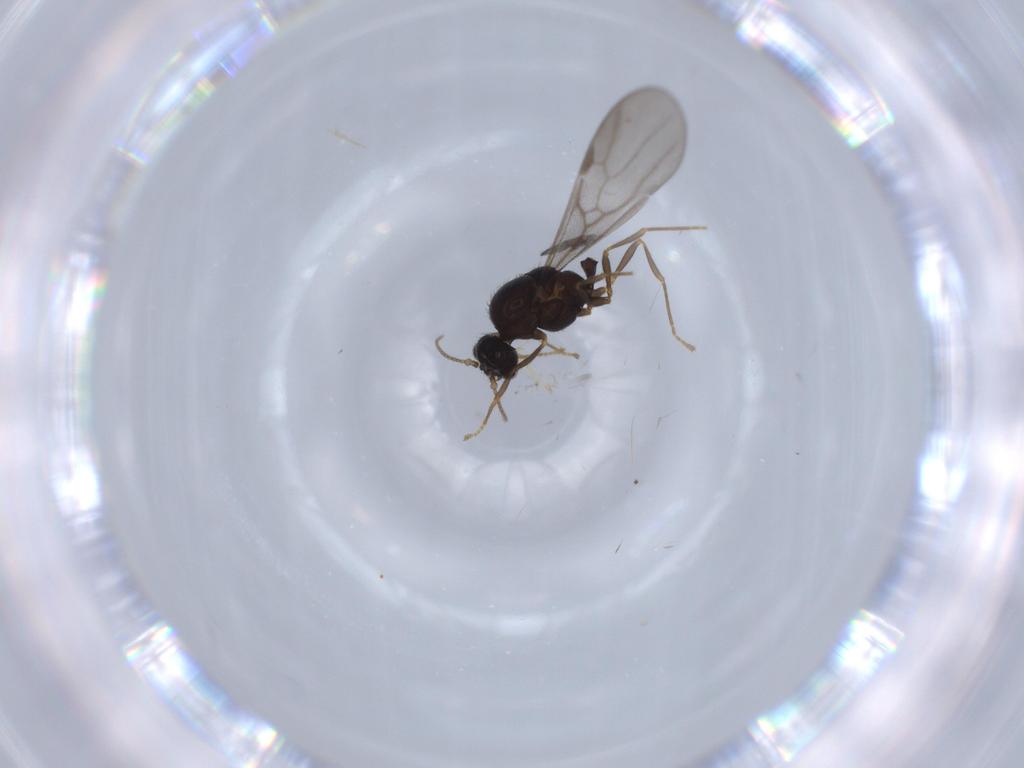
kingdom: Animalia
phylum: Arthropoda
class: Insecta
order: Hymenoptera
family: Formicidae
